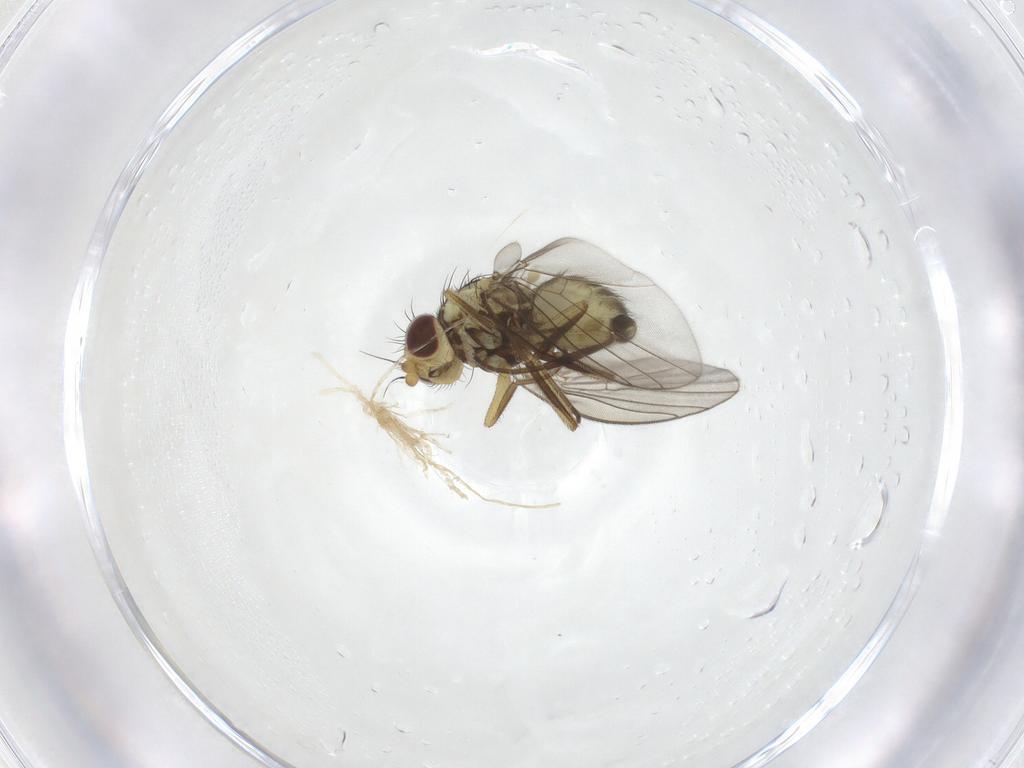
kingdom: Animalia
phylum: Arthropoda
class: Insecta
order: Diptera
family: Agromyzidae
